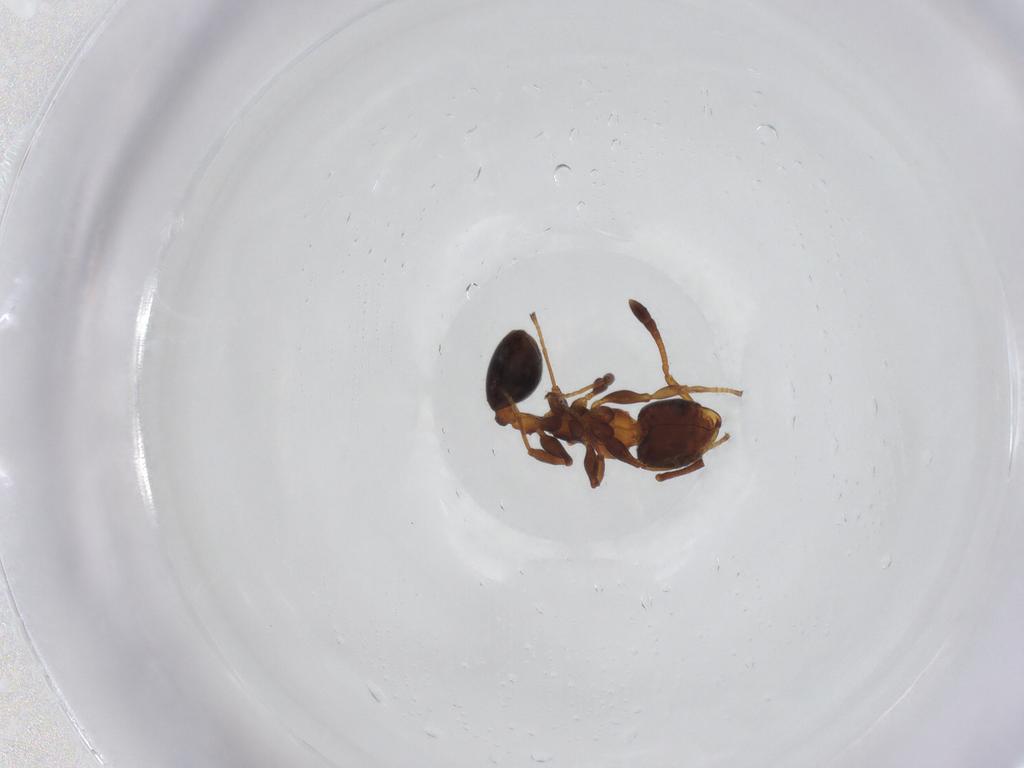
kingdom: Animalia
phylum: Arthropoda
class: Insecta
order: Hymenoptera
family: Formicidae
